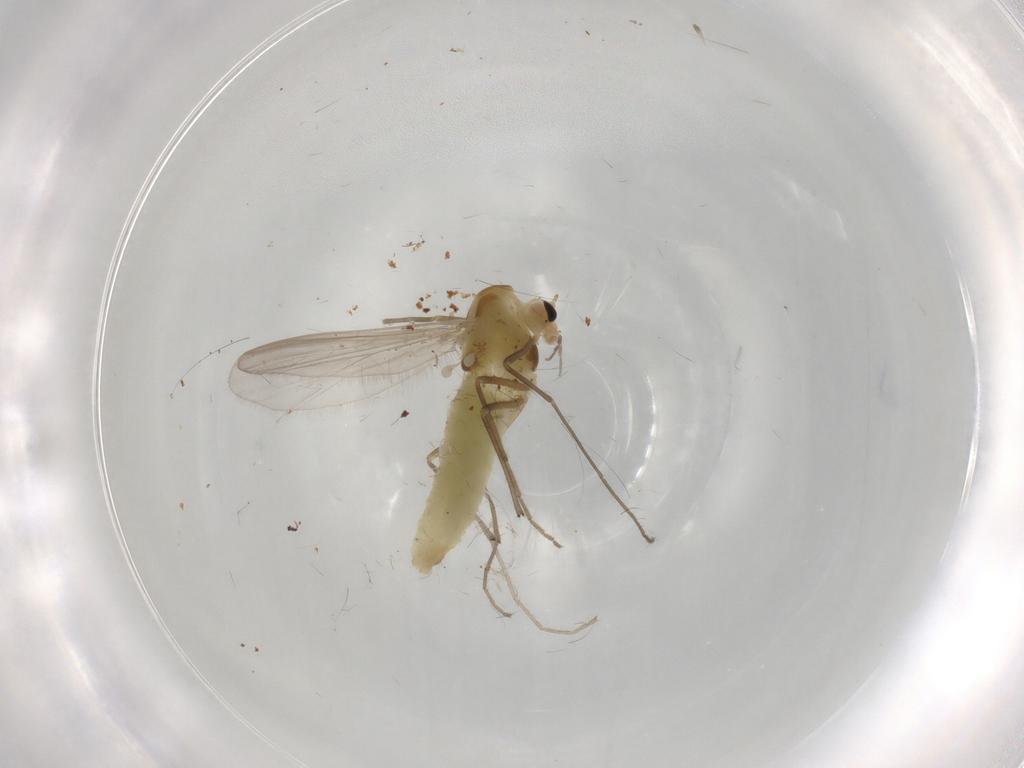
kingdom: Animalia
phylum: Arthropoda
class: Insecta
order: Diptera
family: Chironomidae
